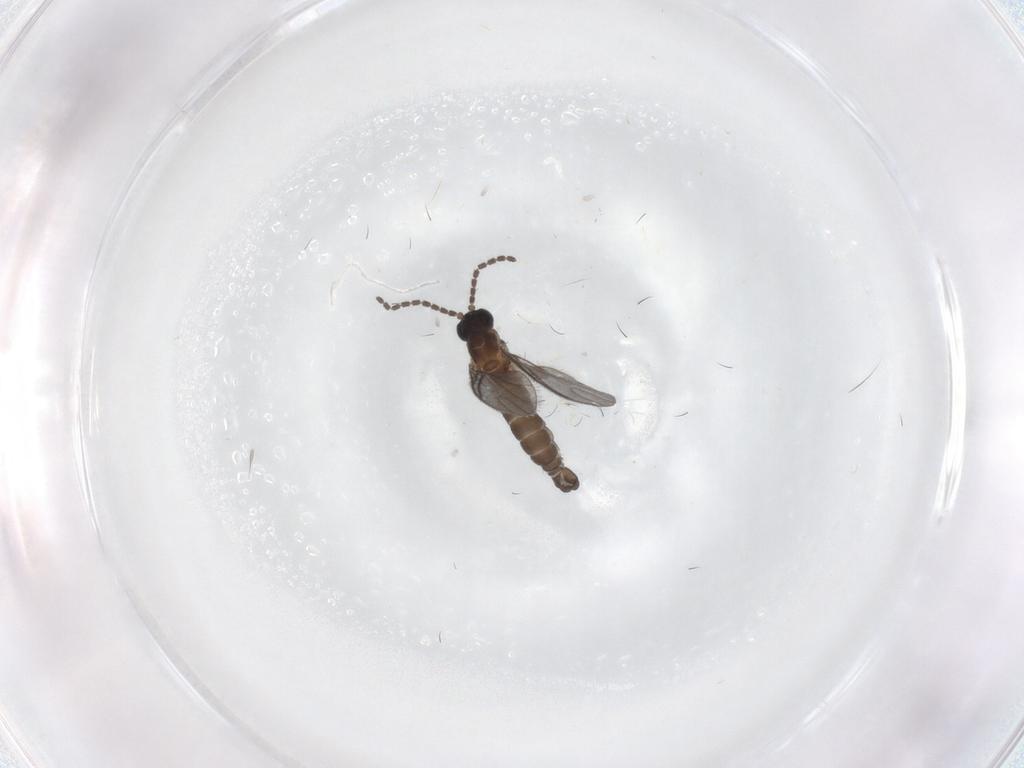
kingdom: Animalia
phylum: Arthropoda
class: Insecta
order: Diptera
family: Sciaridae
